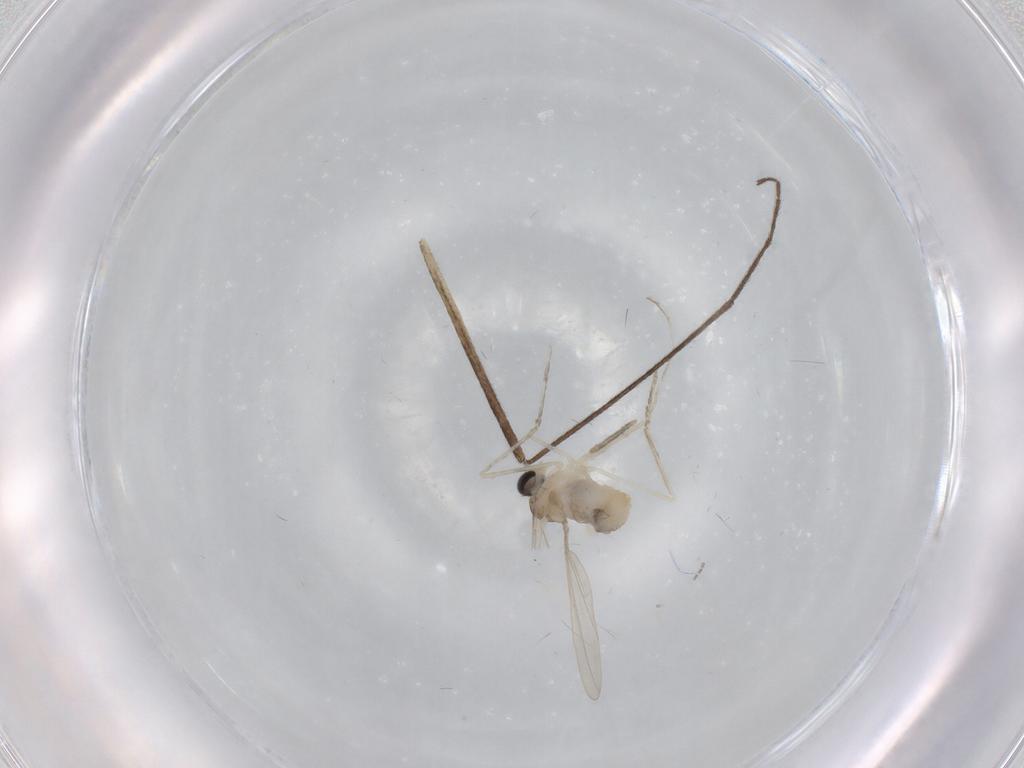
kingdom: Animalia
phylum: Arthropoda
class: Insecta
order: Diptera
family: Cecidomyiidae
